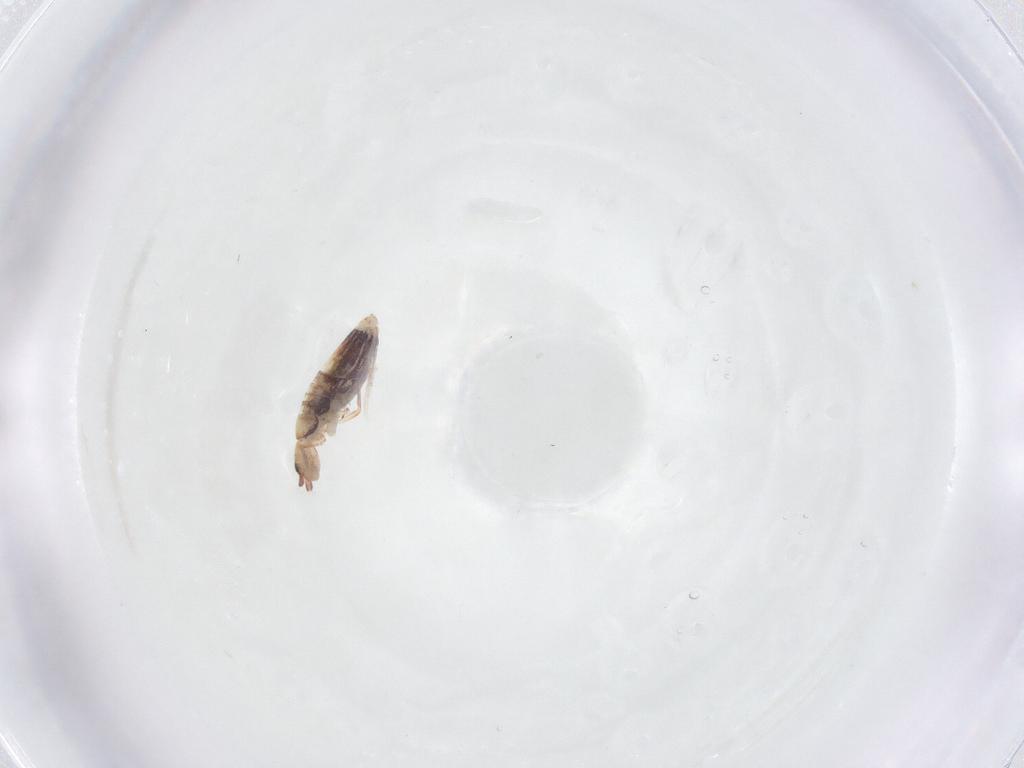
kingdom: Animalia
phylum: Arthropoda
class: Collembola
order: Entomobryomorpha
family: Entomobryidae
